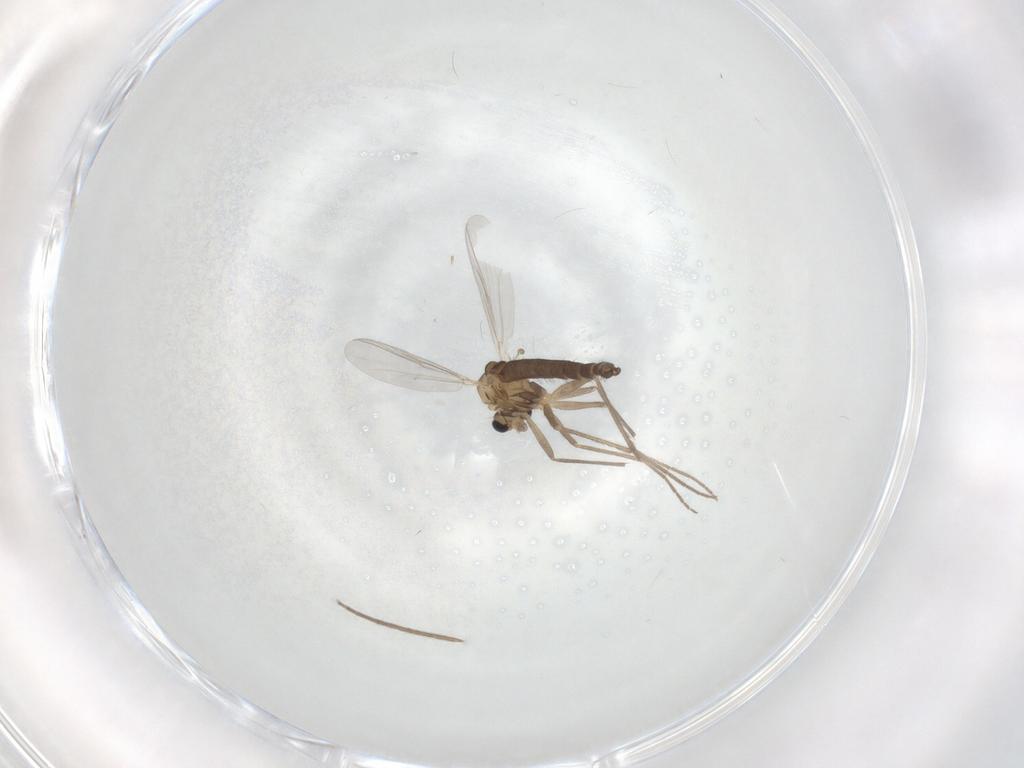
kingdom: Animalia
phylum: Arthropoda
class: Insecta
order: Diptera
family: Chironomidae
